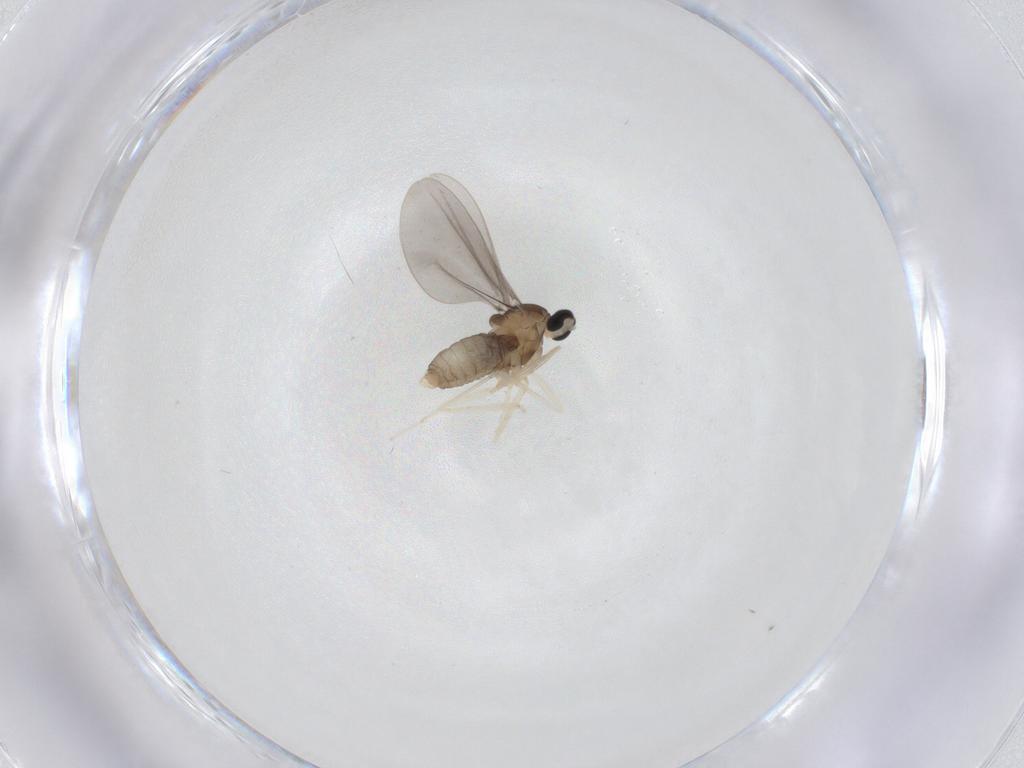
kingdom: Animalia
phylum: Arthropoda
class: Insecta
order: Diptera
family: Cecidomyiidae
